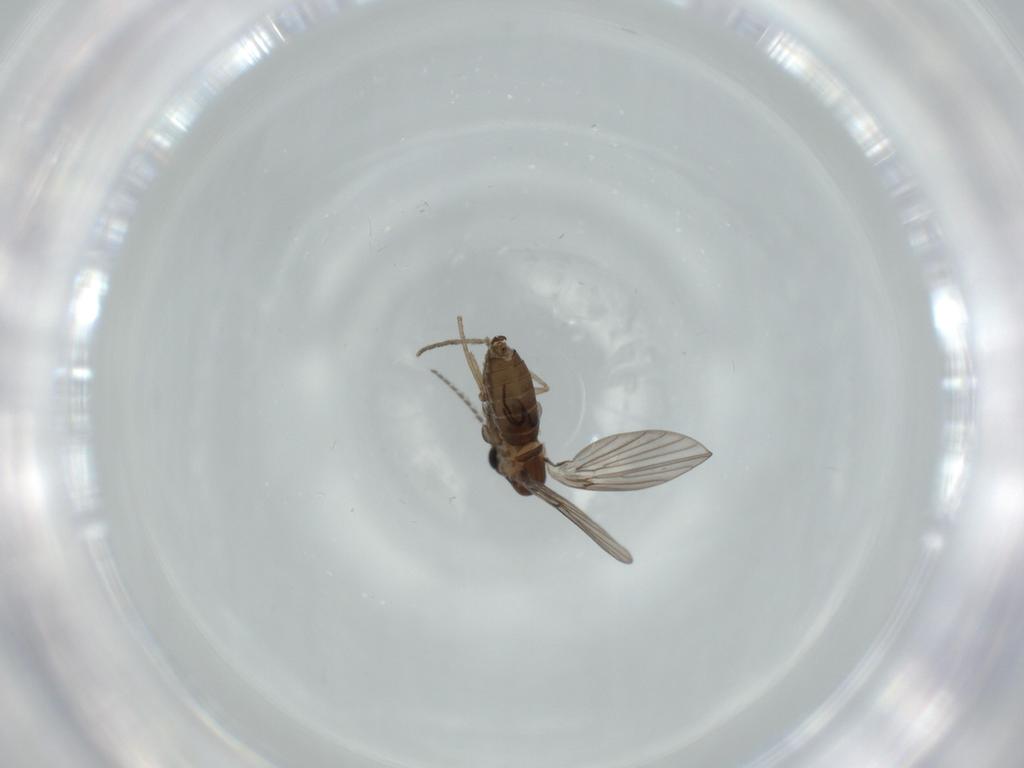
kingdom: Animalia
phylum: Arthropoda
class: Insecta
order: Diptera
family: Psychodidae
